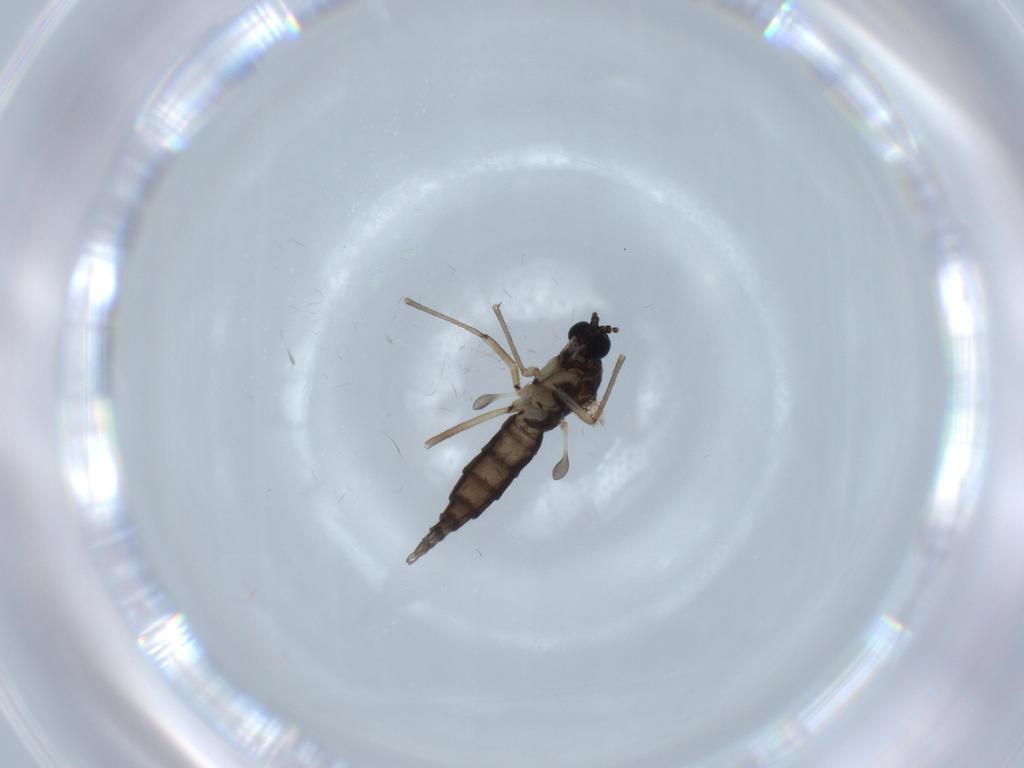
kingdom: Animalia
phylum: Arthropoda
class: Insecta
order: Diptera
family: Sciaridae
